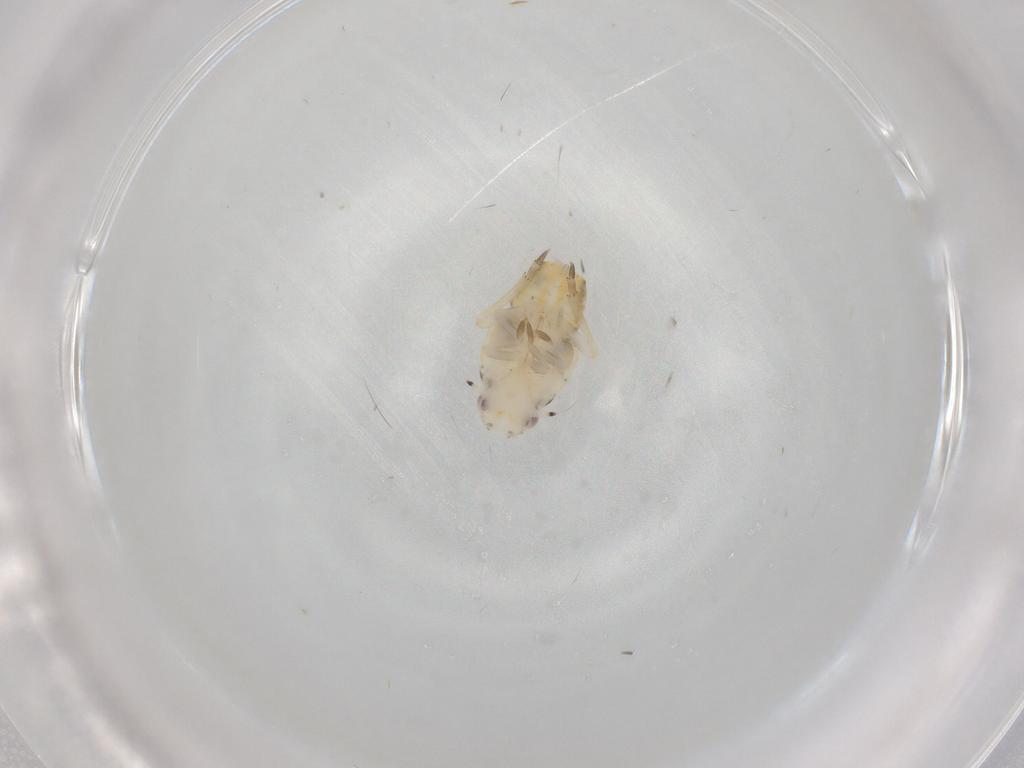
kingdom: Animalia
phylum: Arthropoda
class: Insecta
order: Hemiptera
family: Flatidae
